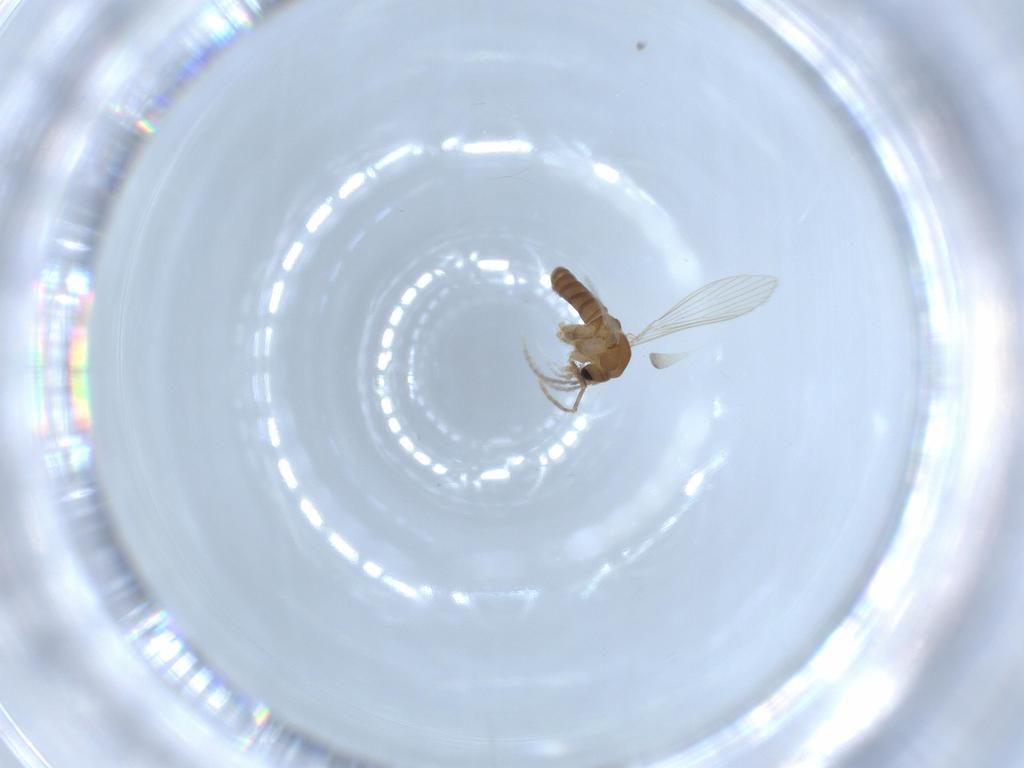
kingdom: Animalia
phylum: Arthropoda
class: Insecta
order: Diptera
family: Psychodidae
